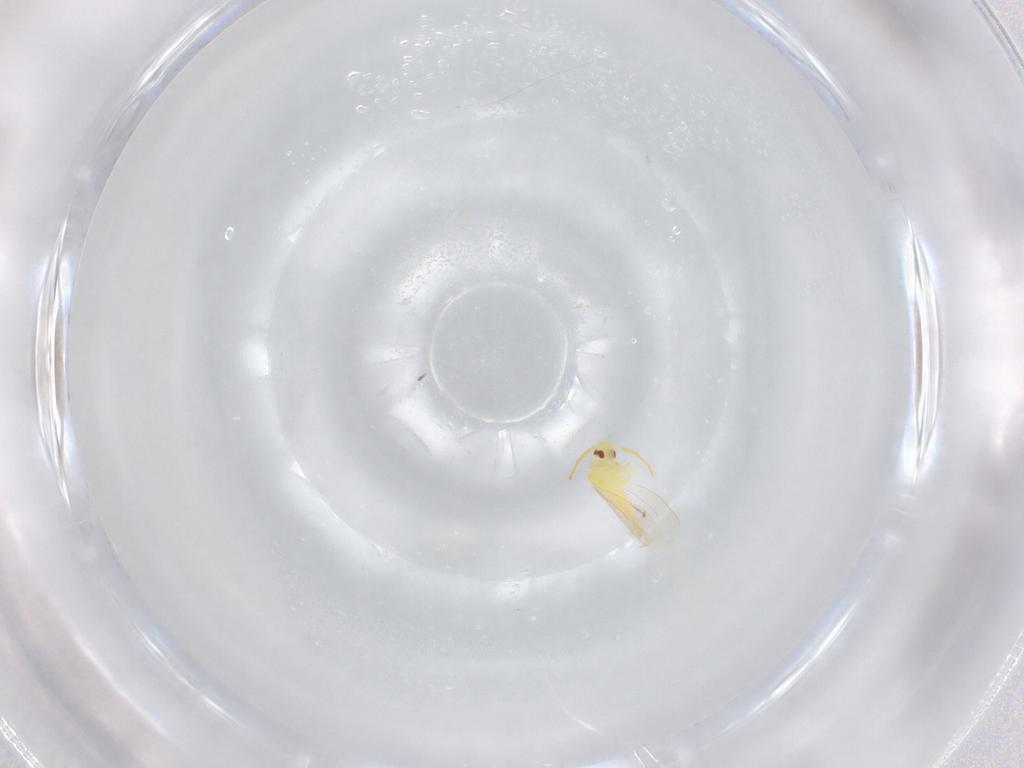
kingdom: Animalia
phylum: Arthropoda
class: Insecta
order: Hemiptera
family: Aleyrodidae
